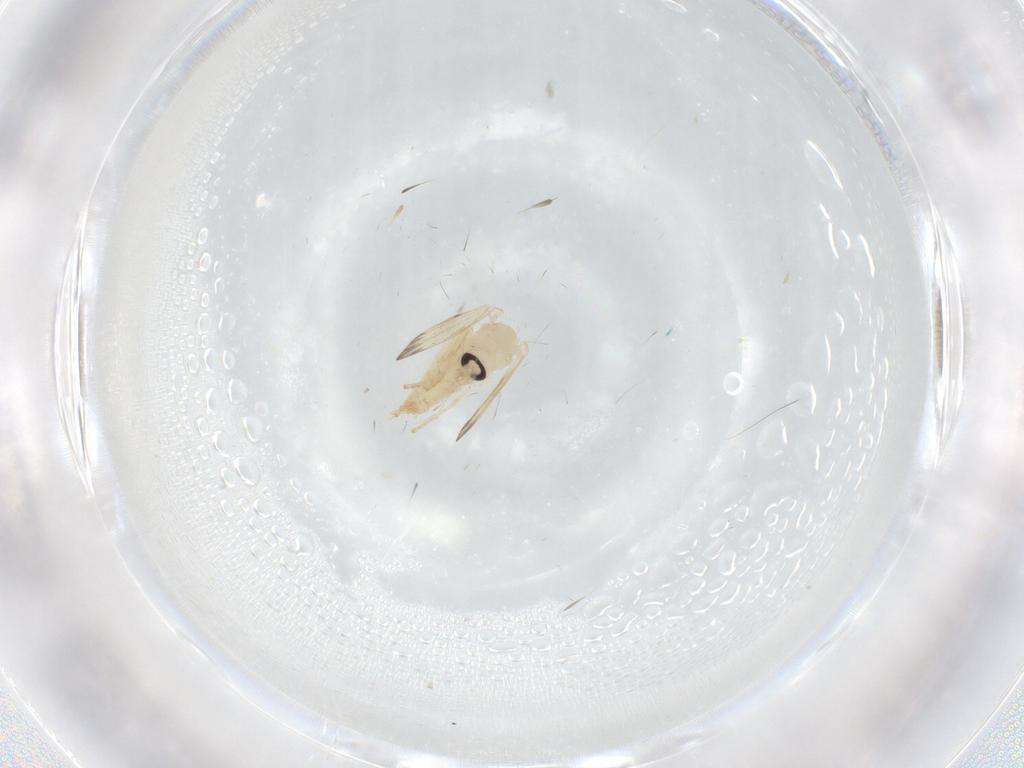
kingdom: Animalia
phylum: Arthropoda
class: Insecta
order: Diptera
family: Psychodidae
